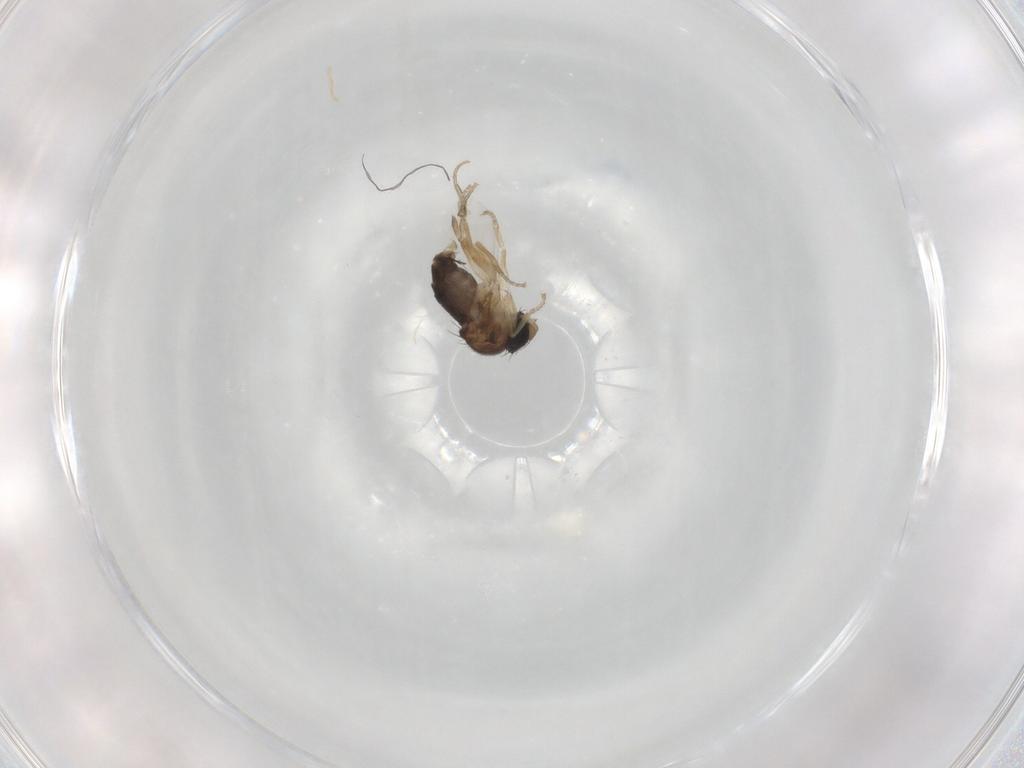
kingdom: Animalia
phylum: Arthropoda
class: Insecta
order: Diptera
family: Phoridae
